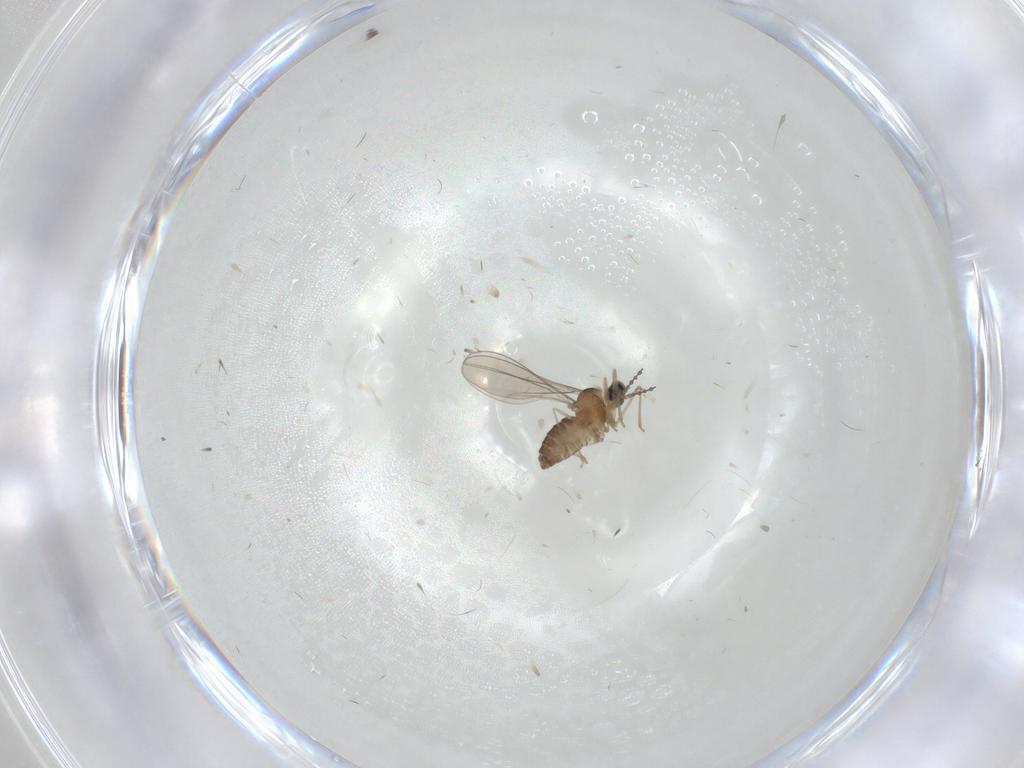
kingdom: Animalia
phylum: Arthropoda
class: Insecta
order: Diptera
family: Cecidomyiidae
